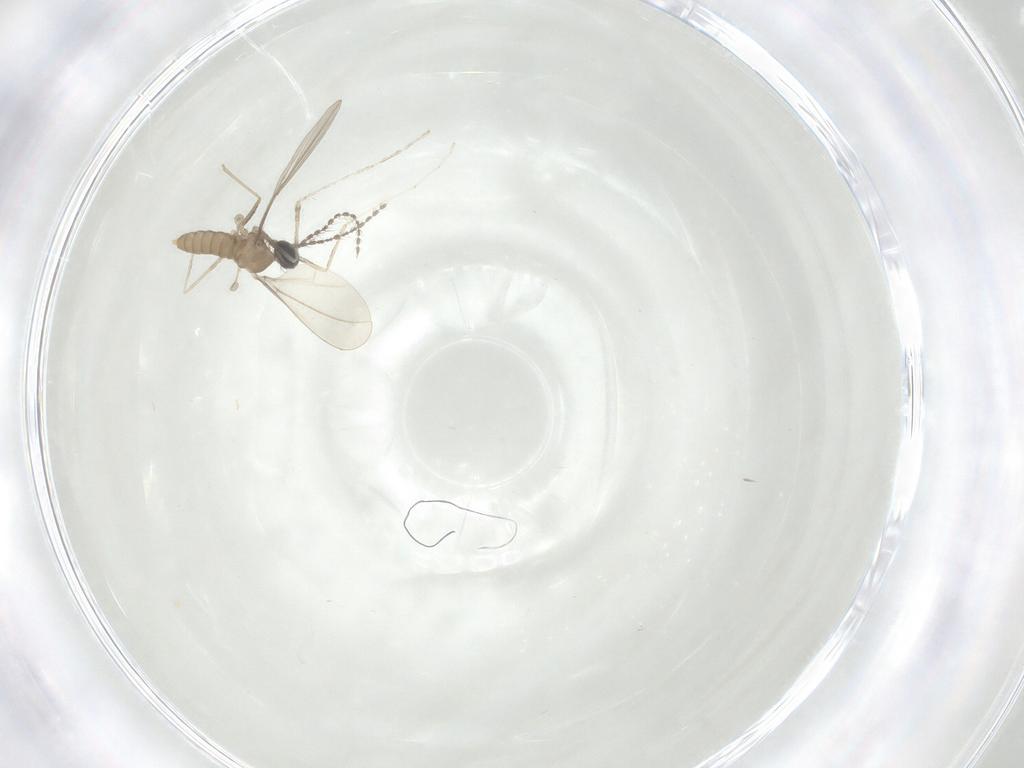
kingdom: Animalia
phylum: Arthropoda
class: Insecta
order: Diptera
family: Cecidomyiidae
